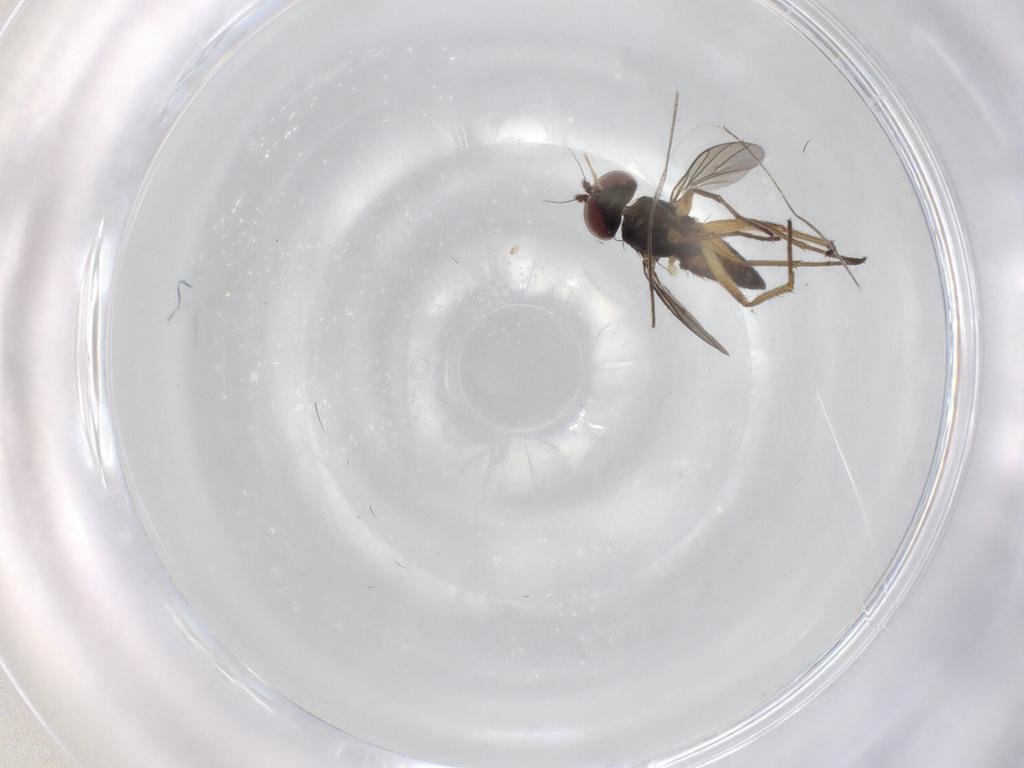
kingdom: Animalia
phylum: Arthropoda
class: Insecta
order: Diptera
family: Dolichopodidae
